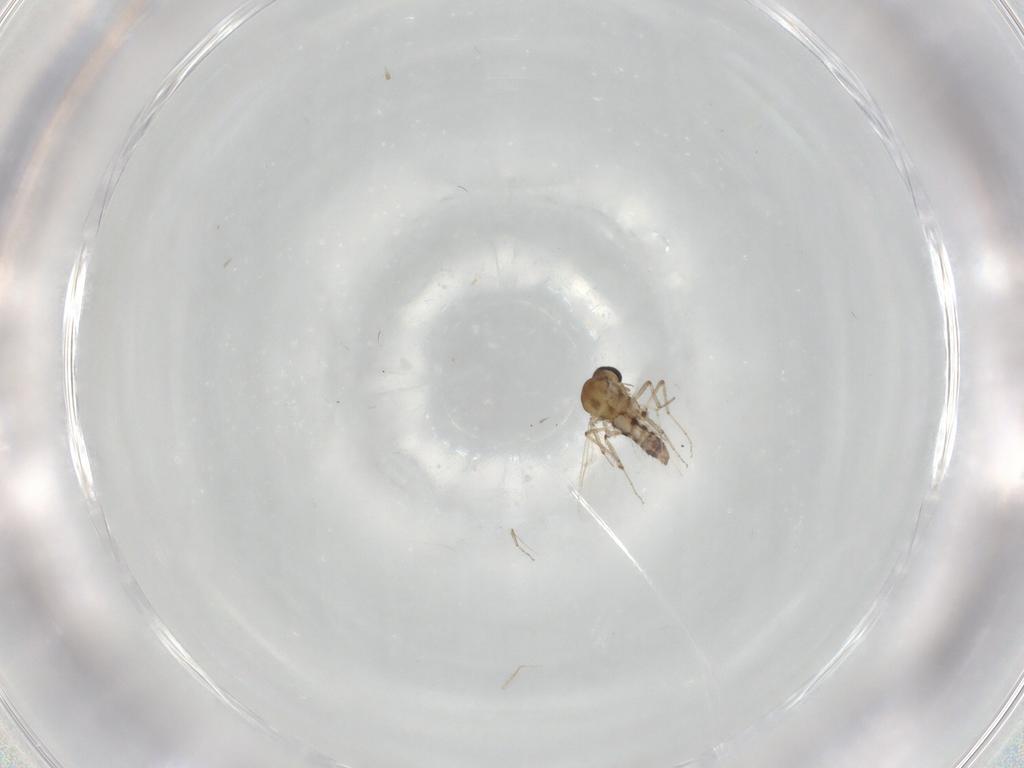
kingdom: Animalia
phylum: Arthropoda
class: Insecta
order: Diptera
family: Ceratopogonidae
